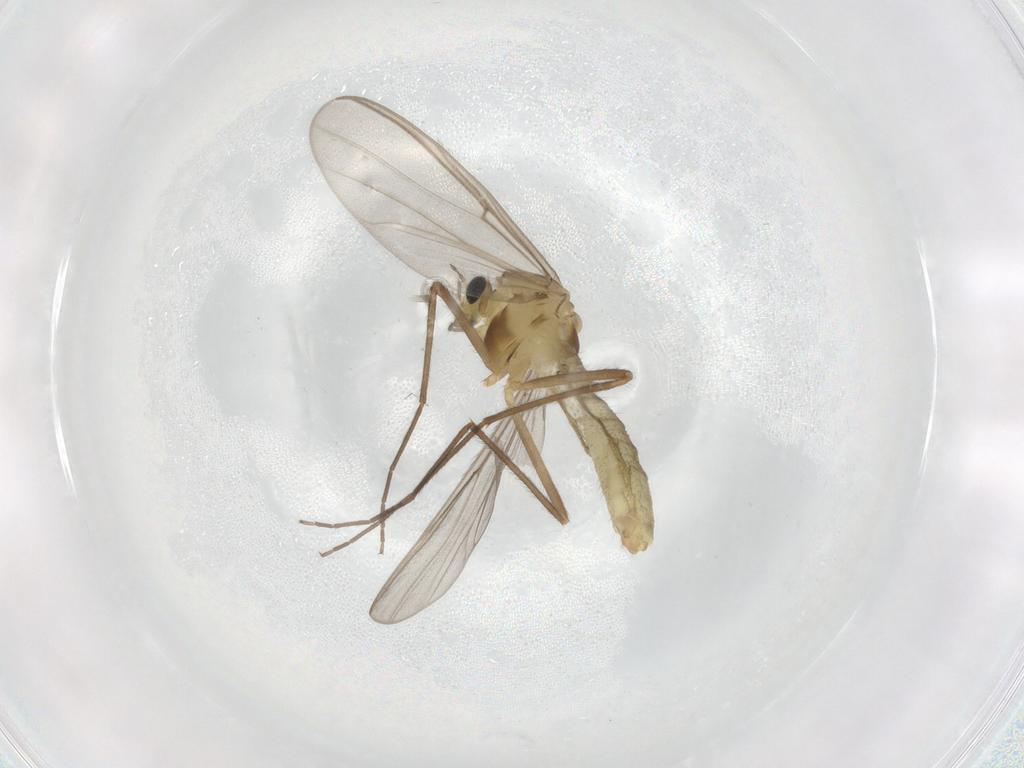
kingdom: Animalia
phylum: Arthropoda
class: Insecta
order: Diptera
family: Chironomidae
